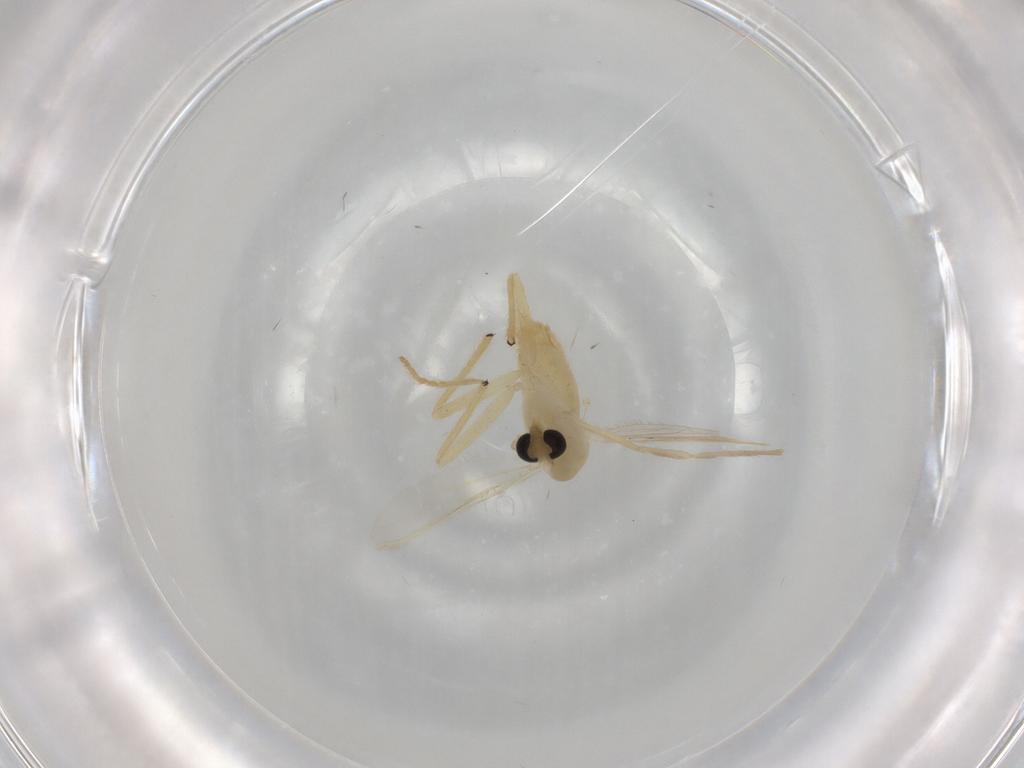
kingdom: Animalia
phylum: Arthropoda
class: Insecta
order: Diptera
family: Chironomidae
